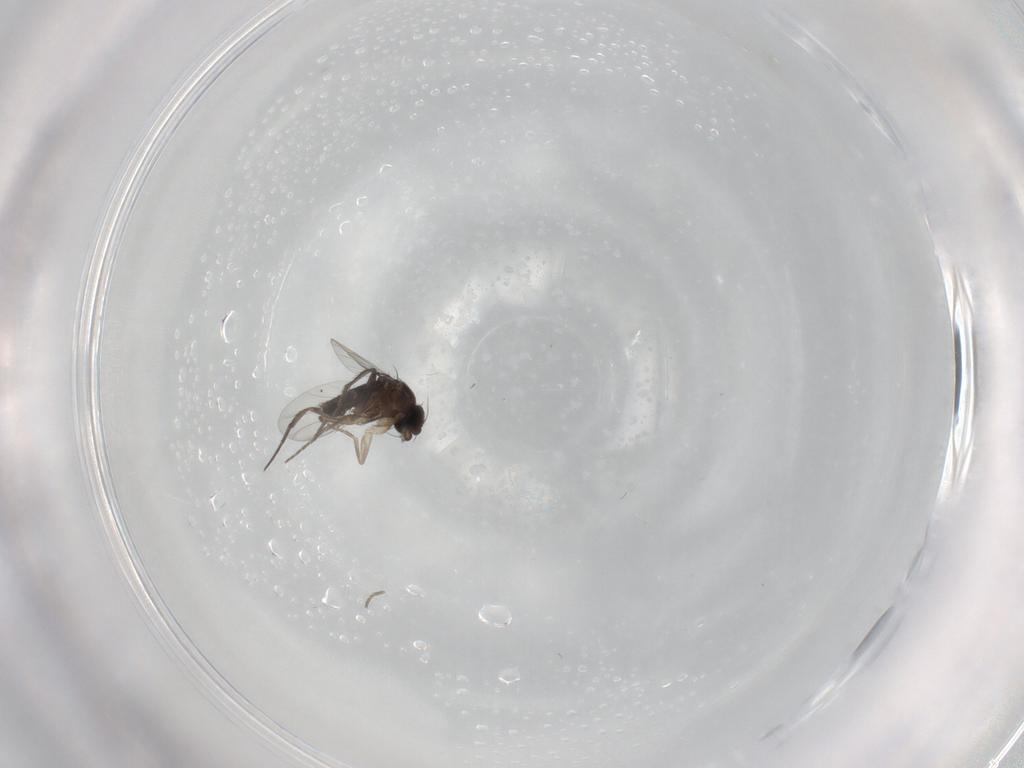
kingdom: Animalia
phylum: Arthropoda
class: Insecta
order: Diptera
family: Phoridae
